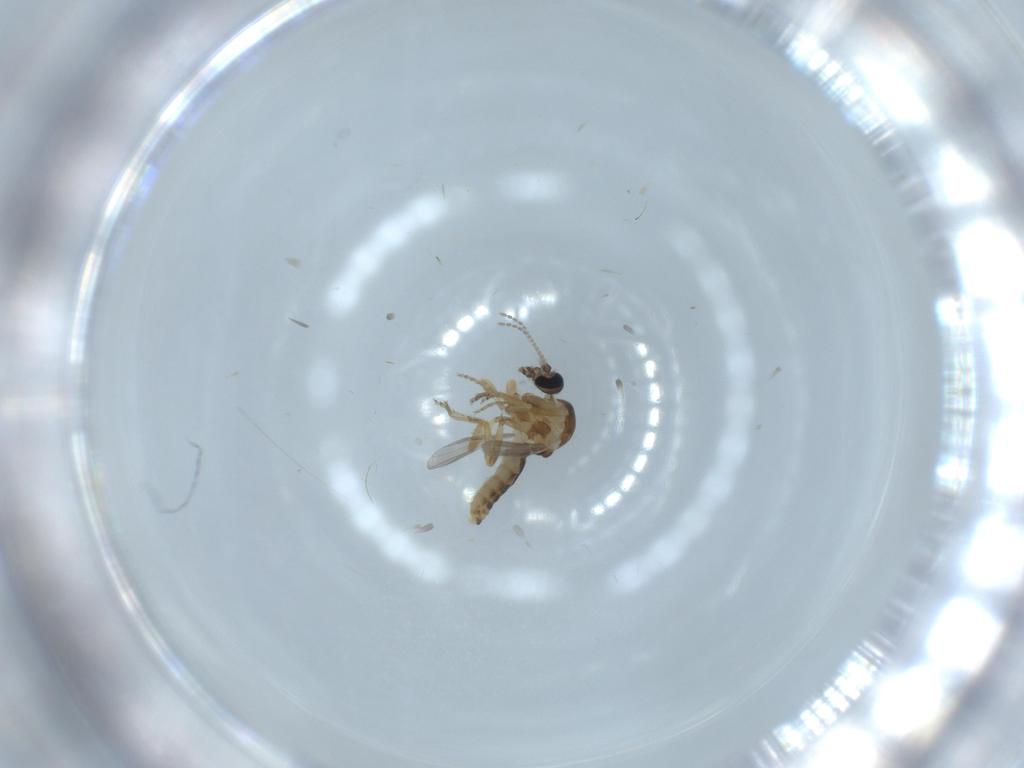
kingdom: Animalia
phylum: Arthropoda
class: Insecta
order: Diptera
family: Ceratopogonidae
